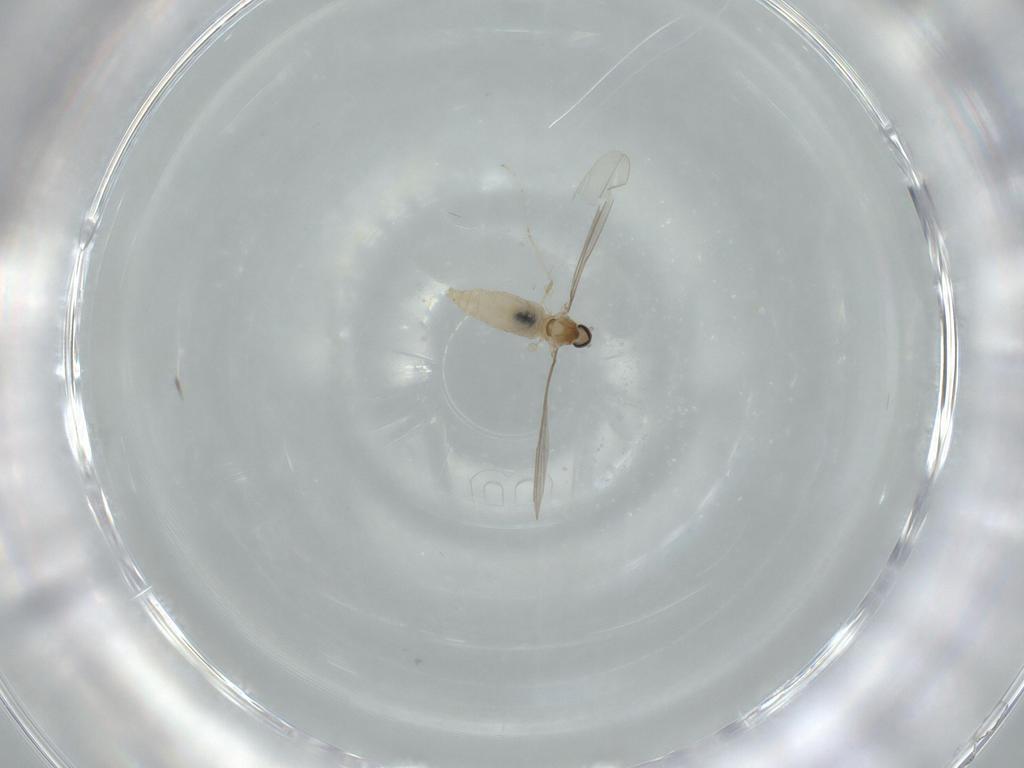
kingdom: Animalia
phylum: Arthropoda
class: Insecta
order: Diptera
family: Cecidomyiidae
